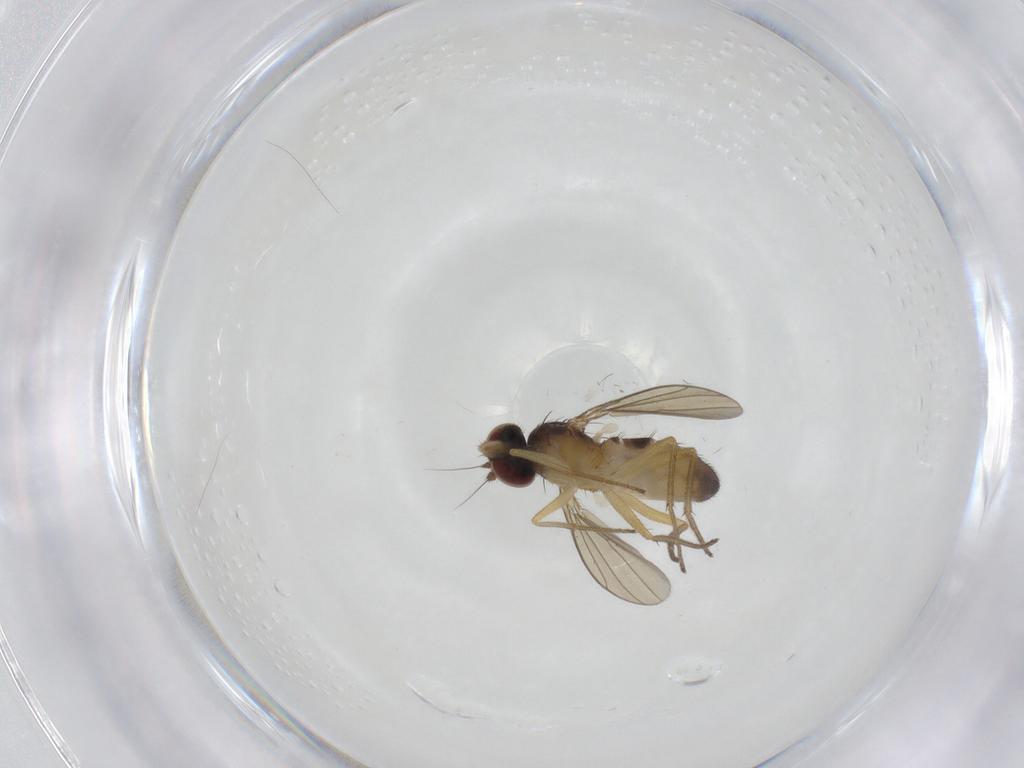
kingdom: Animalia
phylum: Arthropoda
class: Insecta
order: Diptera
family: Dolichopodidae
